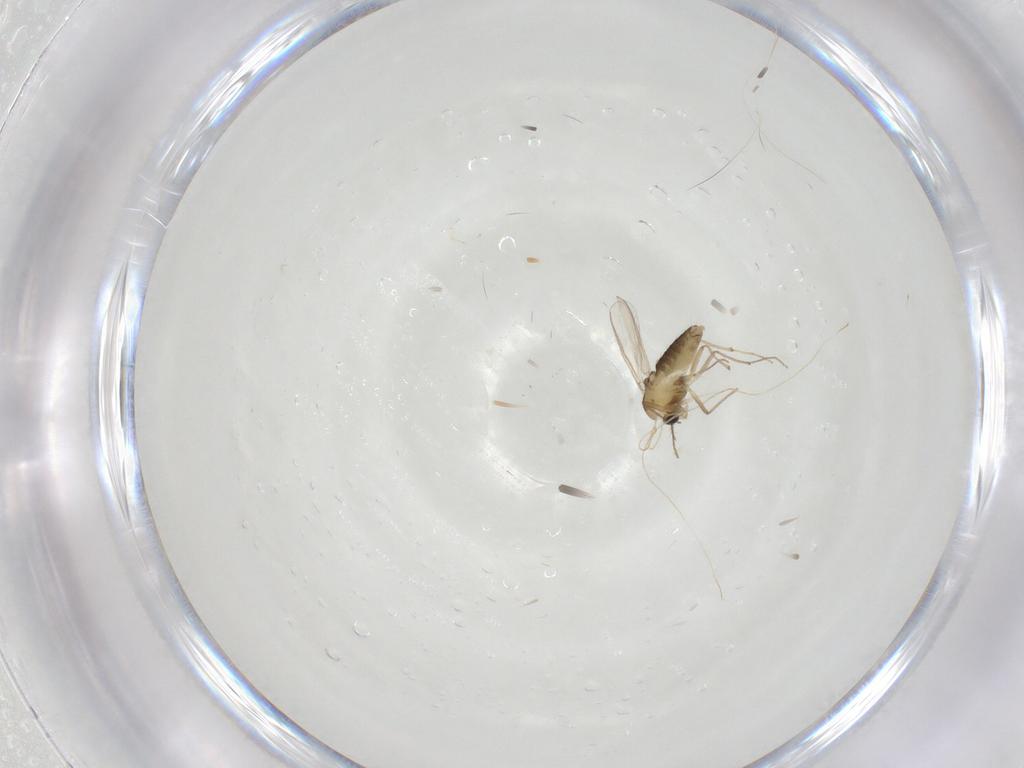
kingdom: Animalia
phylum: Arthropoda
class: Insecta
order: Diptera
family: Chironomidae
